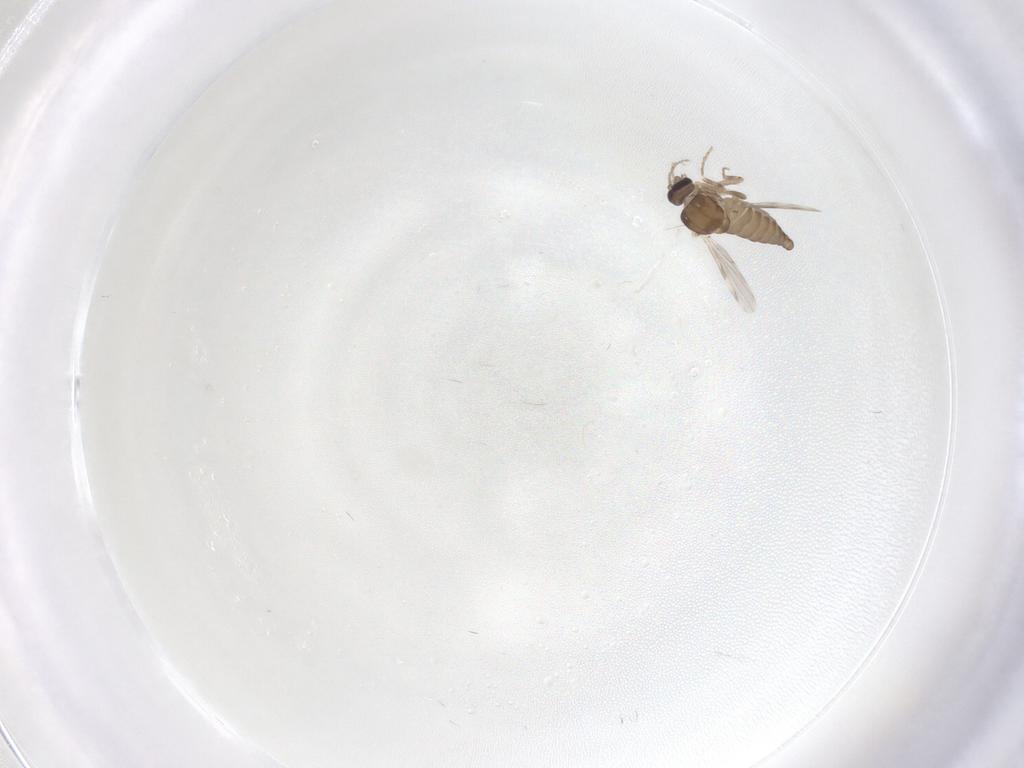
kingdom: Animalia
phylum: Arthropoda
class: Insecta
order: Diptera
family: Ceratopogonidae
